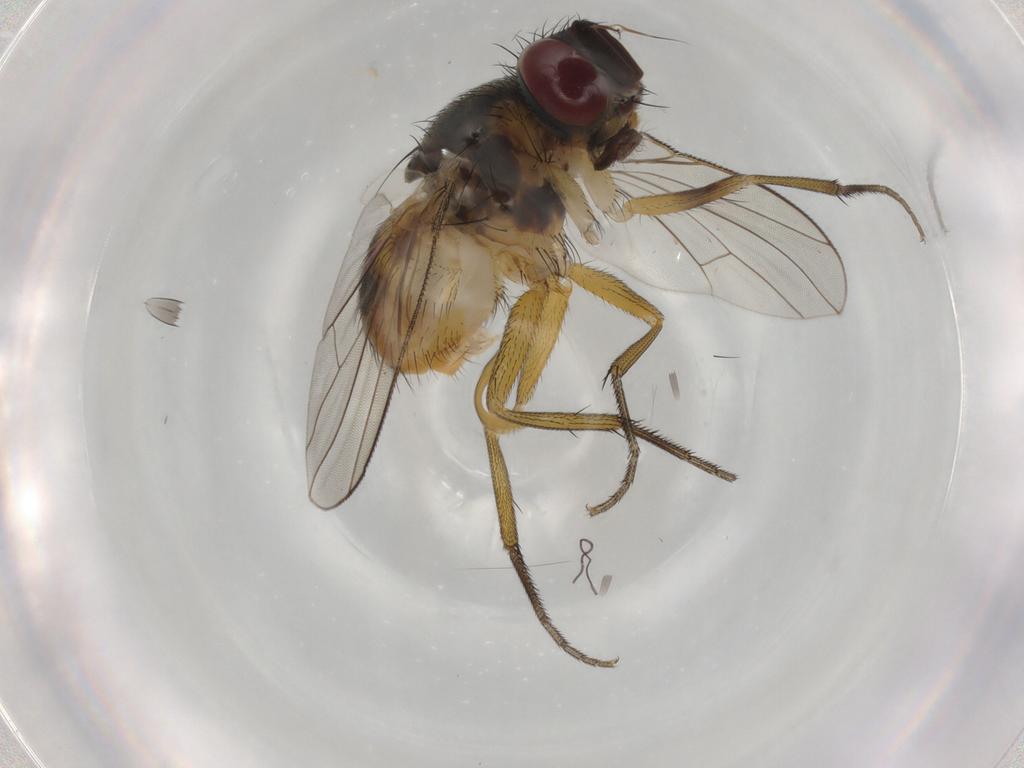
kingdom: Animalia
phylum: Arthropoda
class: Insecta
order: Diptera
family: Muscidae
